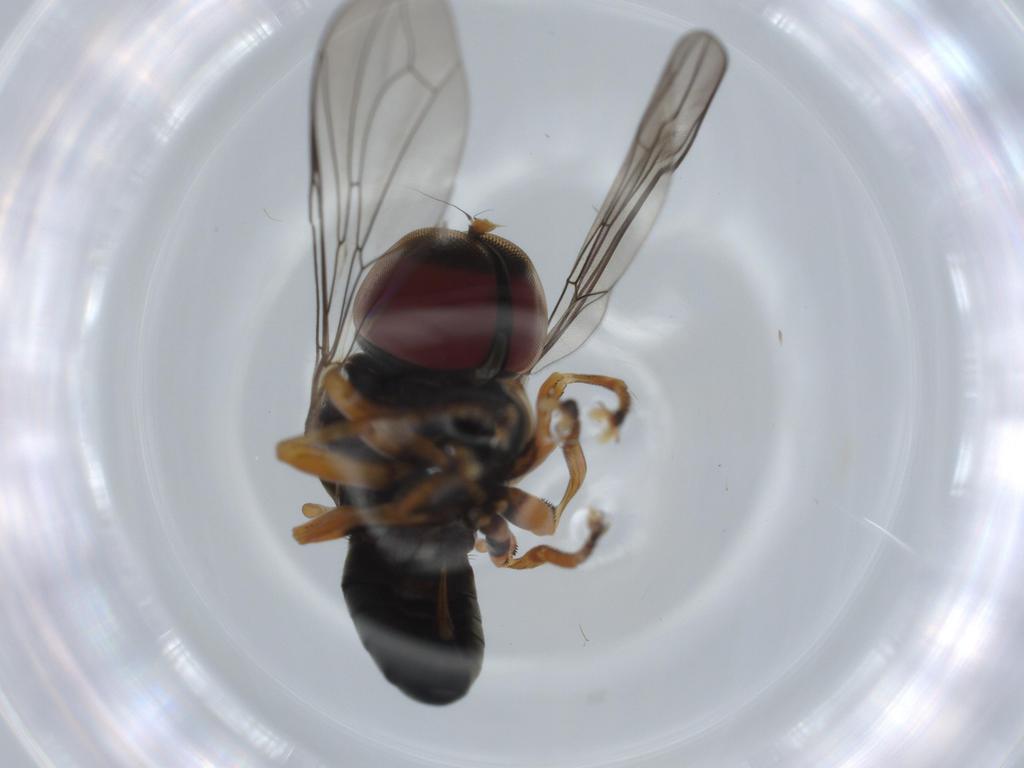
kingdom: Animalia
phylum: Arthropoda
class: Insecta
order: Diptera
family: Pipunculidae
